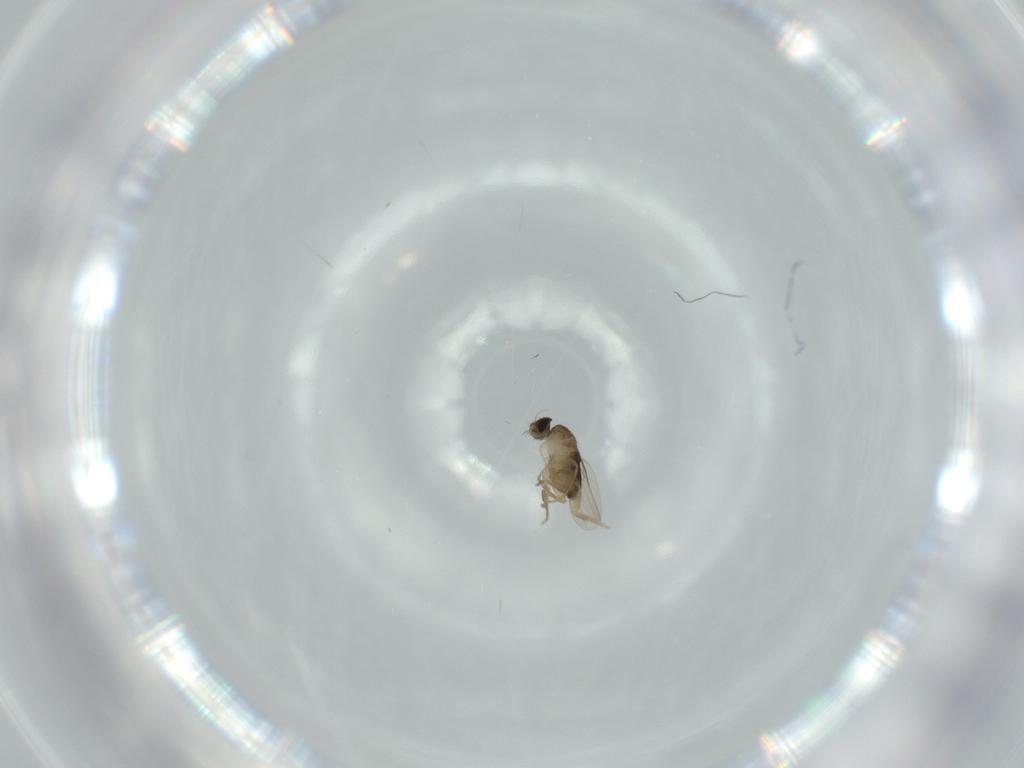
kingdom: Animalia
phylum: Arthropoda
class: Insecta
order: Diptera
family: Phoridae
